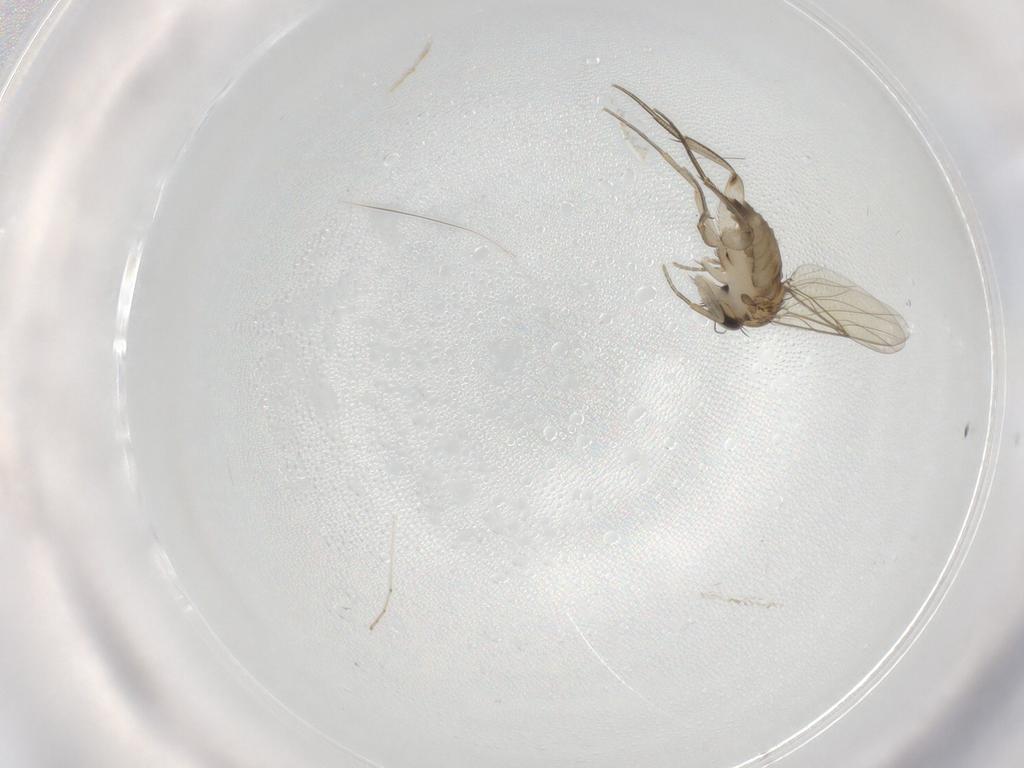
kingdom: Animalia
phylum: Arthropoda
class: Insecta
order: Diptera
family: Phoridae
